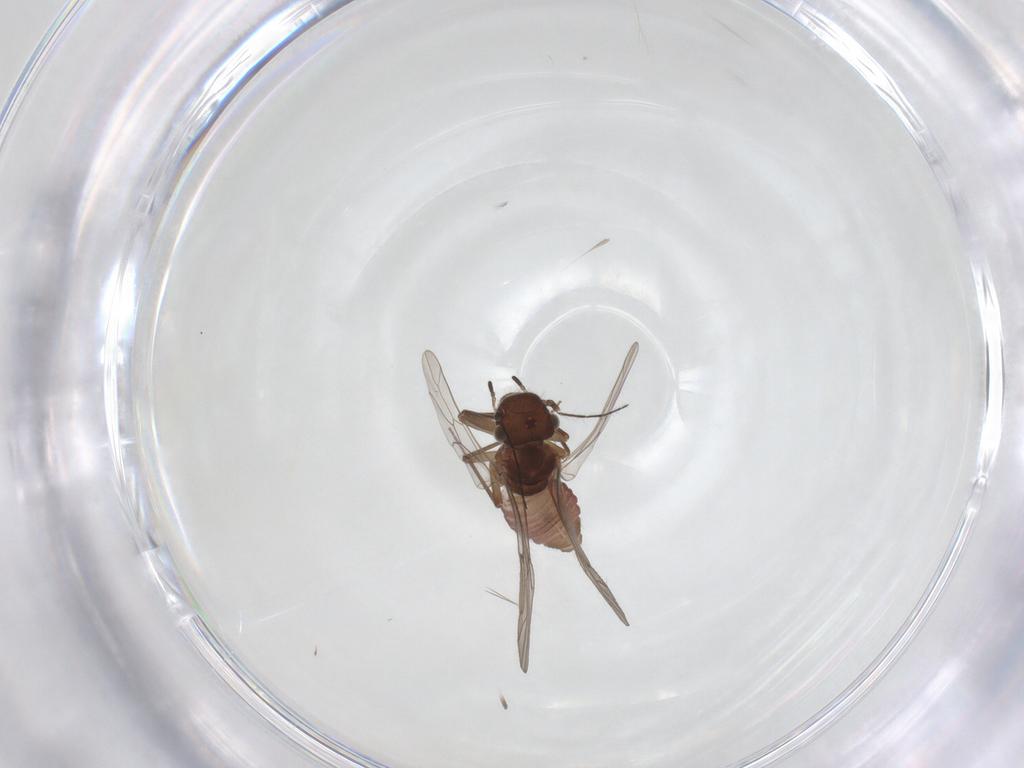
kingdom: Animalia
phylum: Arthropoda
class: Insecta
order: Psocodea
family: Ectopsocidae
